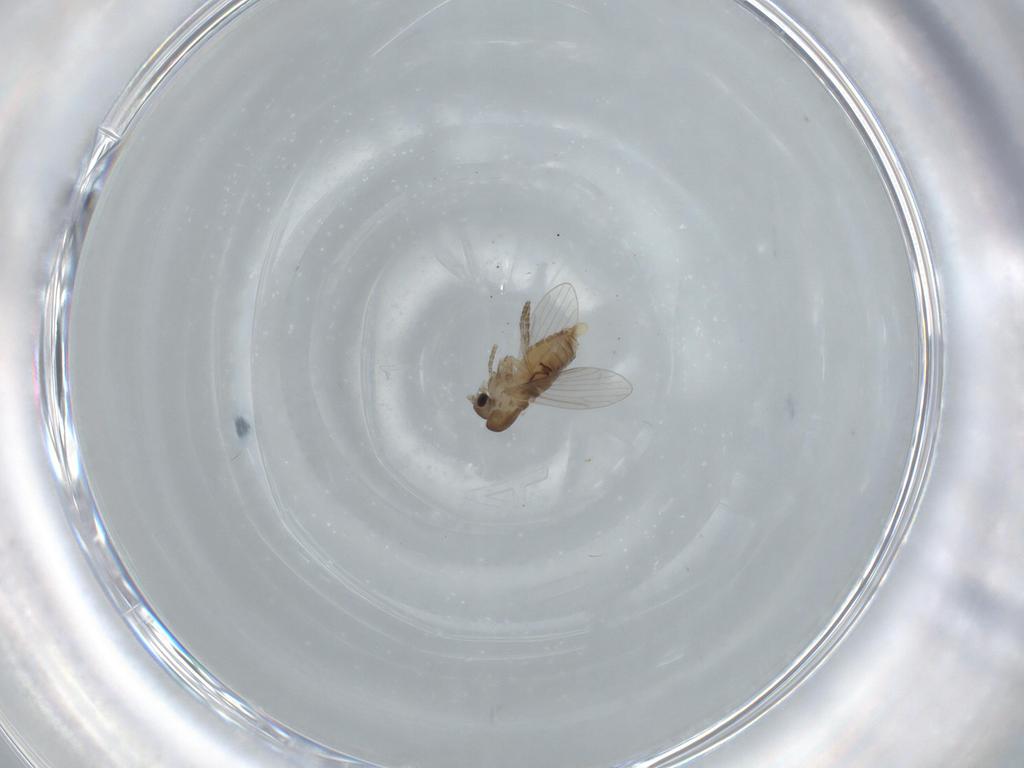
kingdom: Animalia
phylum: Arthropoda
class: Insecta
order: Diptera
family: Cecidomyiidae
